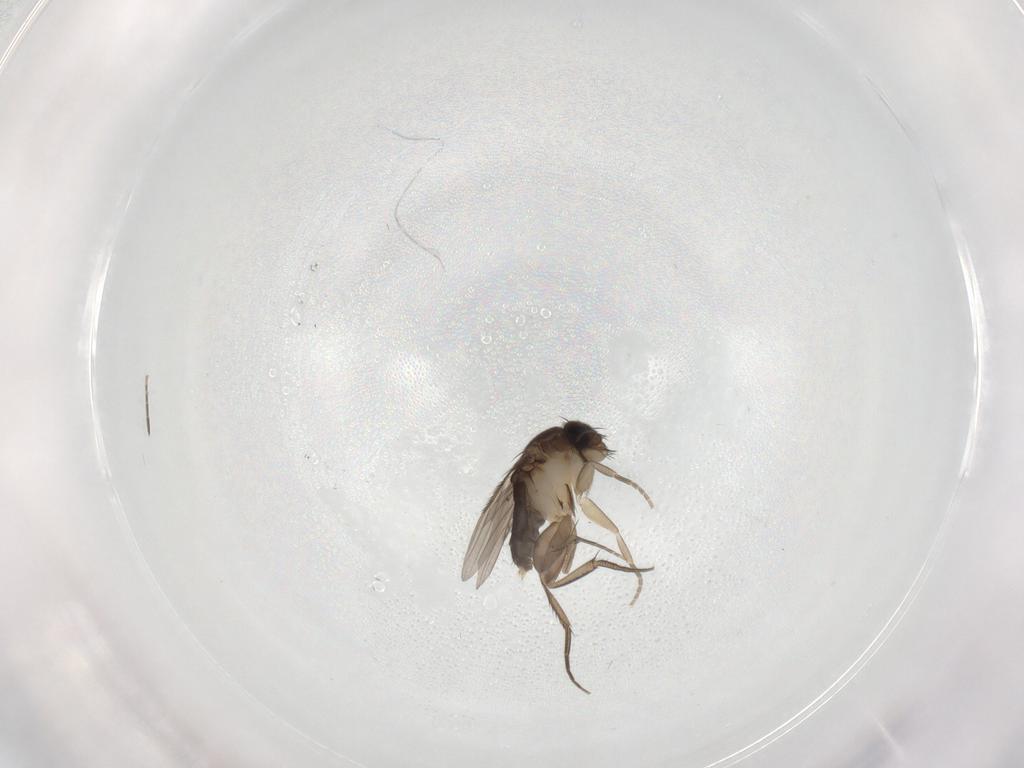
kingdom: Animalia
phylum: Arthropoda
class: Insecta
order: Diptera
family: Phoridae
